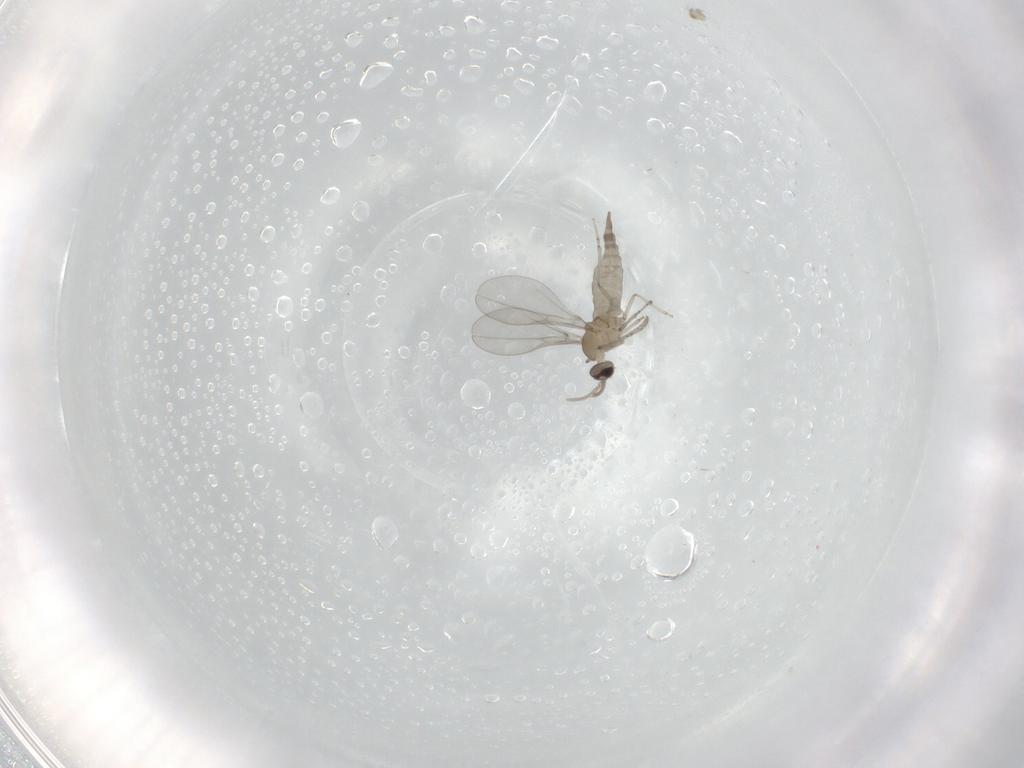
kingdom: Animalia
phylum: Arthropoda
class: Insecta
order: Diptera
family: Cecidomyiidae
